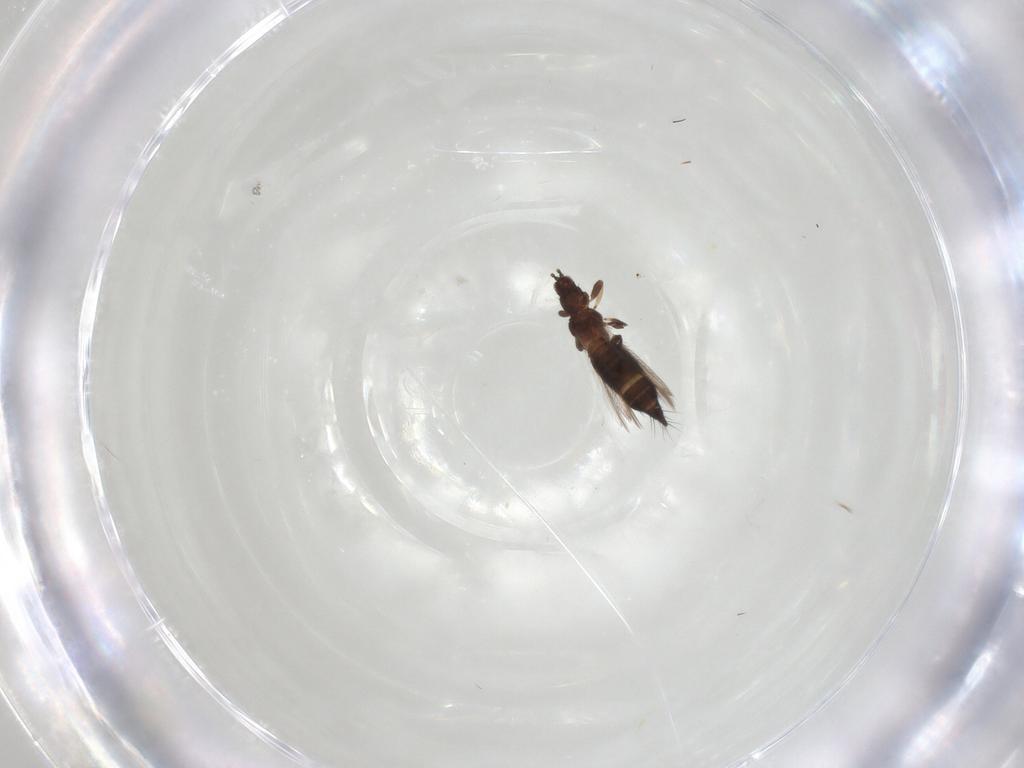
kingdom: Animalia
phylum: Arthropoda
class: Insecta
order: Thysanoptera
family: Thripidae
